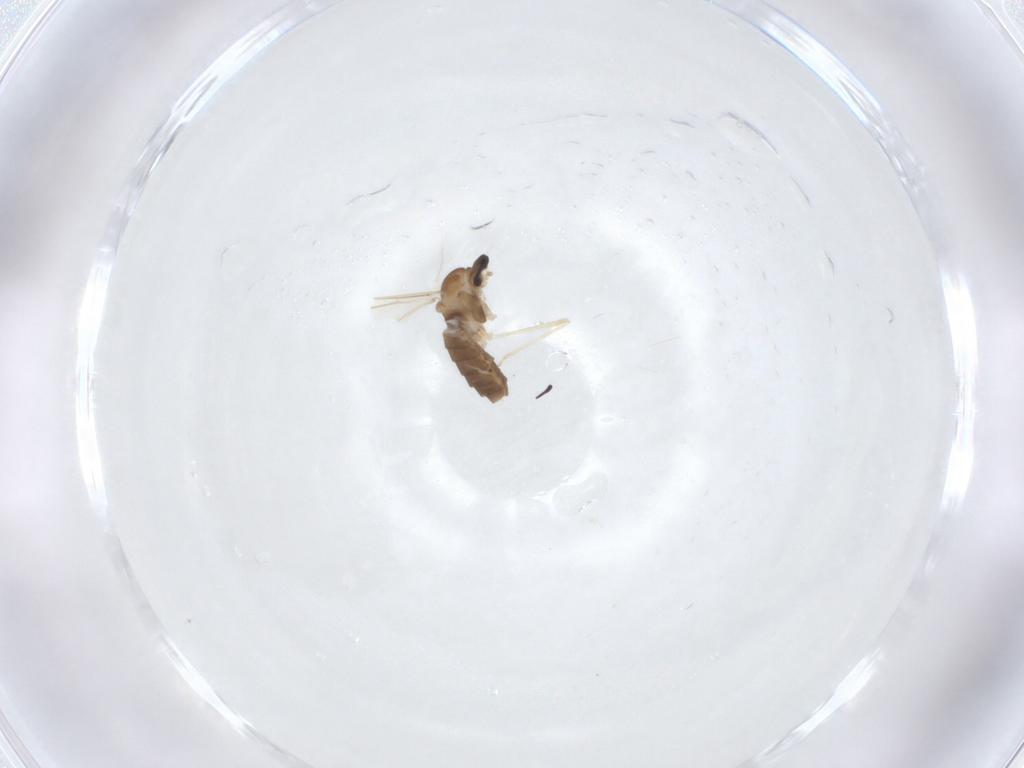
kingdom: Animalia
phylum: Arthropoda
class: Insecta
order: Diptera
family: Cecidomyiidae
